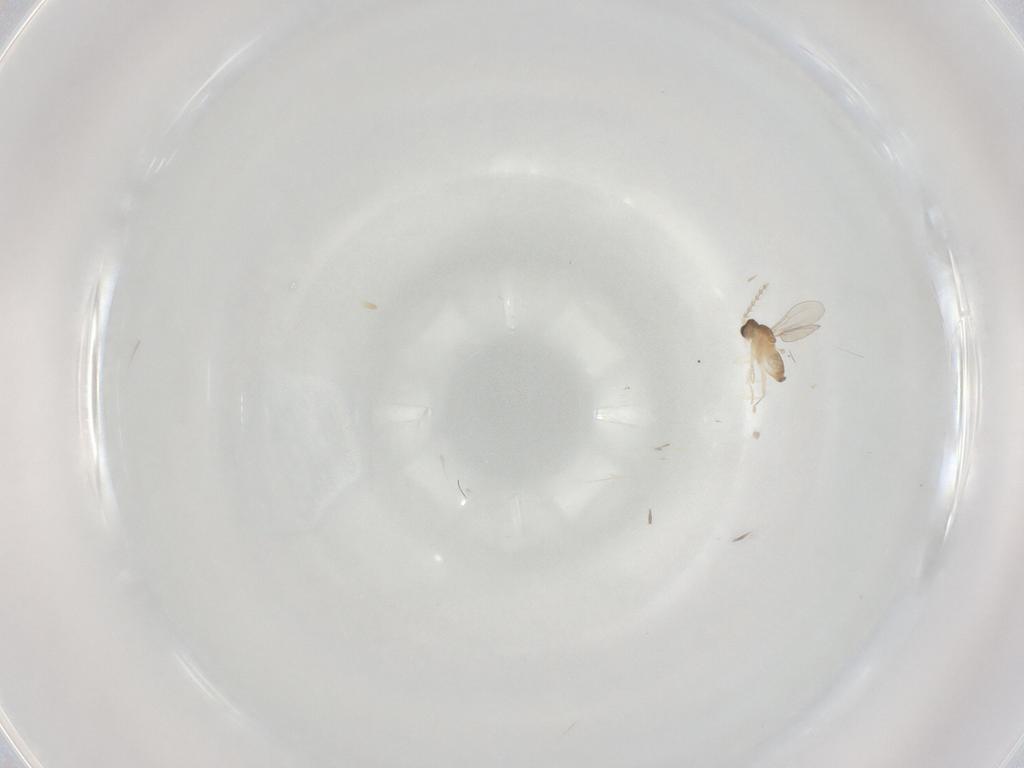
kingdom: Animalia
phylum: Arthropoda
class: Insecta
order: Diptera
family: Cecidomyiidae
